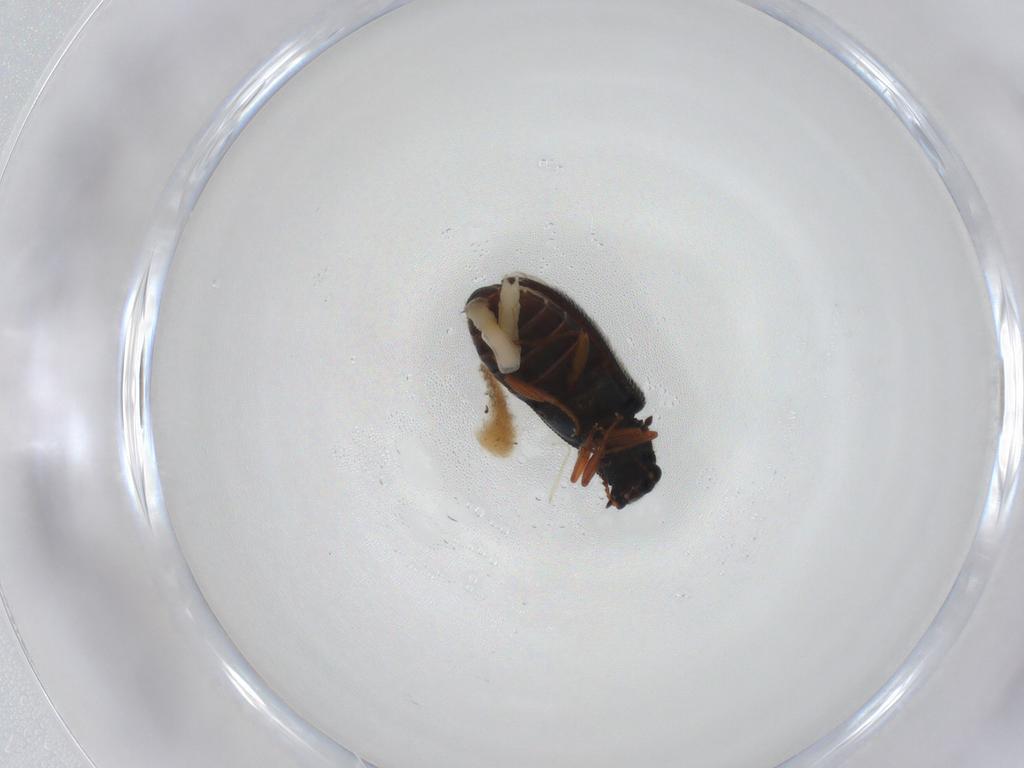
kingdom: Animalia
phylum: Arthropoda
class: Insecta
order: Coleoptera
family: Melyridae
